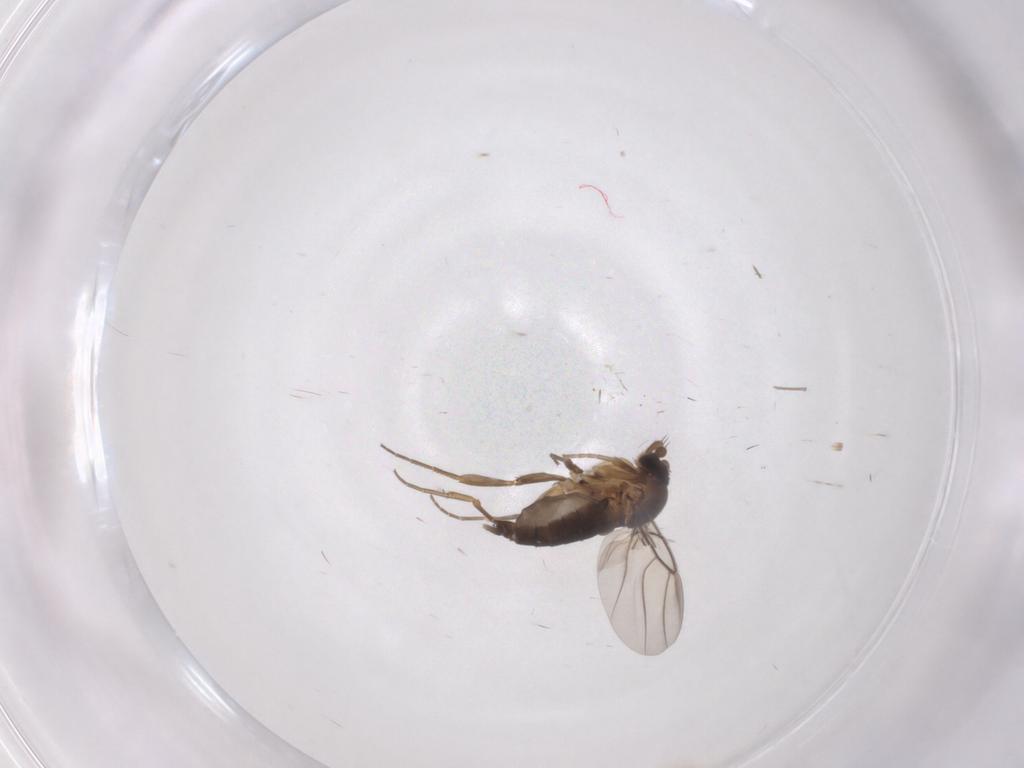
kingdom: Animalia
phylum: Arthropoda
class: Insecta
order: Diptera
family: Phoridae
